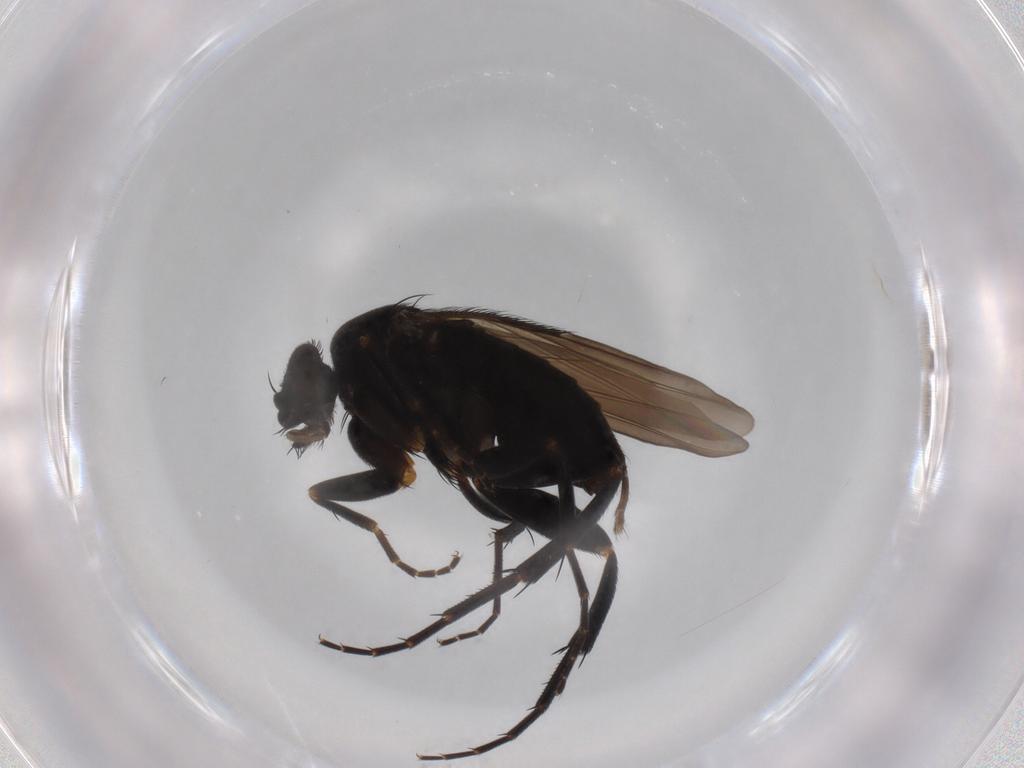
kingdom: Animalia
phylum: Arthropoda
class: Insecta
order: Diptera
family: Phoridae
